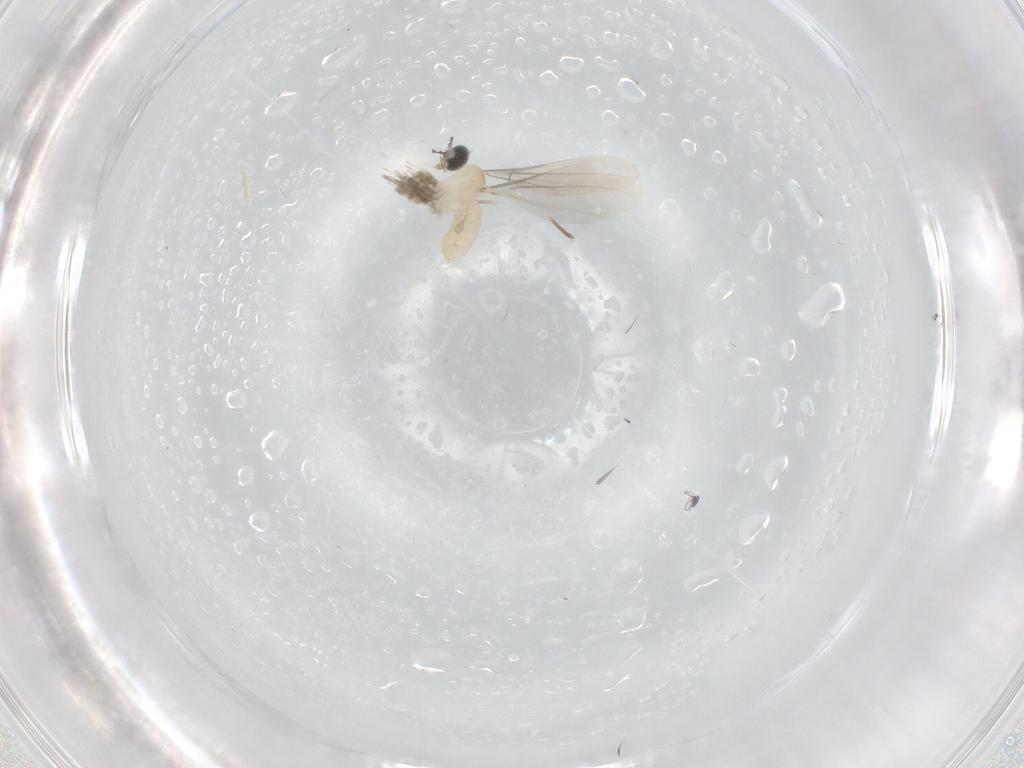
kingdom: Animalia
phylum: Arthropoda
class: Insecta
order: Diptera
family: Cecidomyiidae
